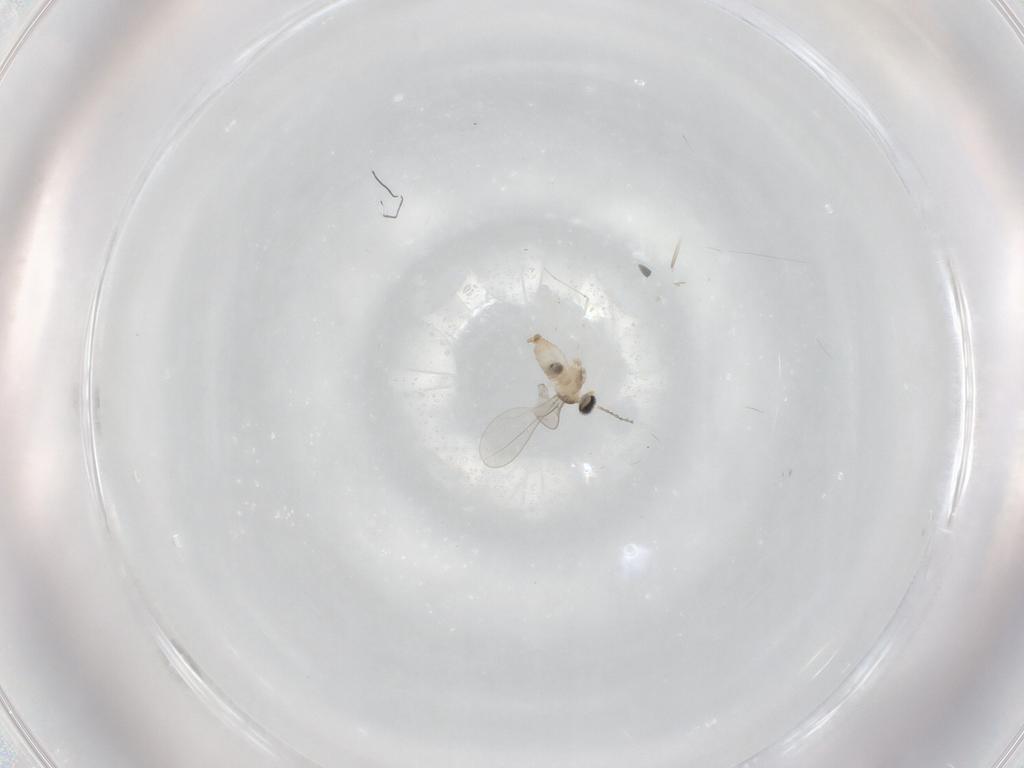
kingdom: Animalia
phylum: Arthropoda
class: Insecta
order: Diptera
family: Cecidomyiidae
